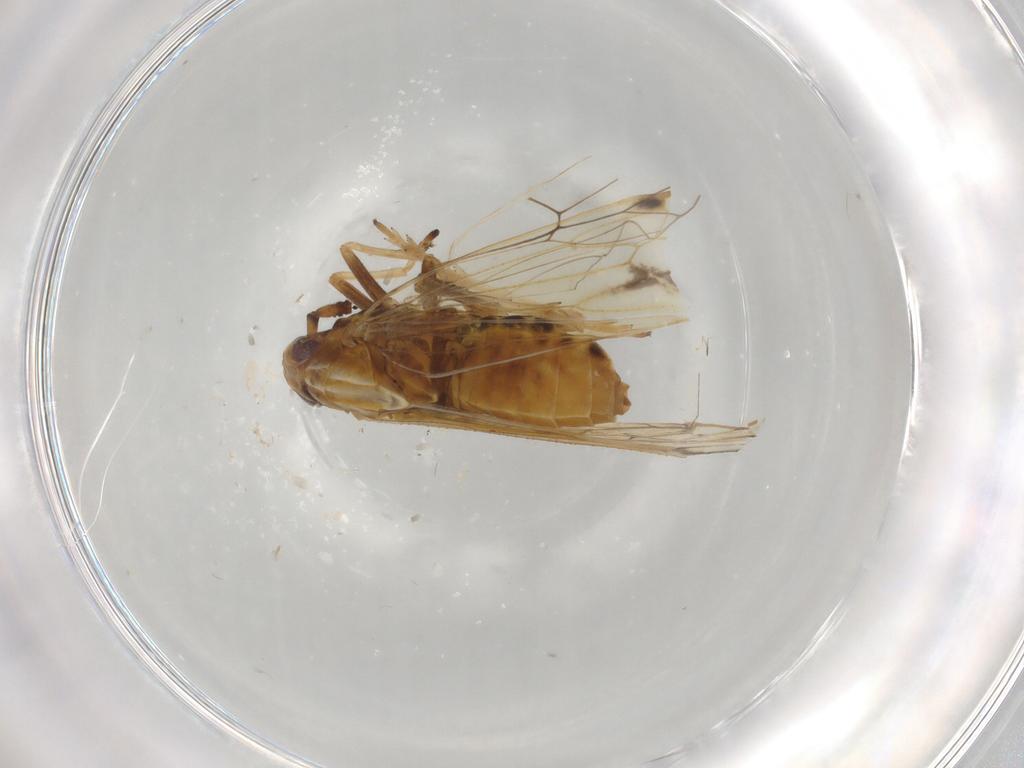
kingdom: Animalia
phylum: Arthropoda
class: Insecta
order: Hemiptera
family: Delphacidae
